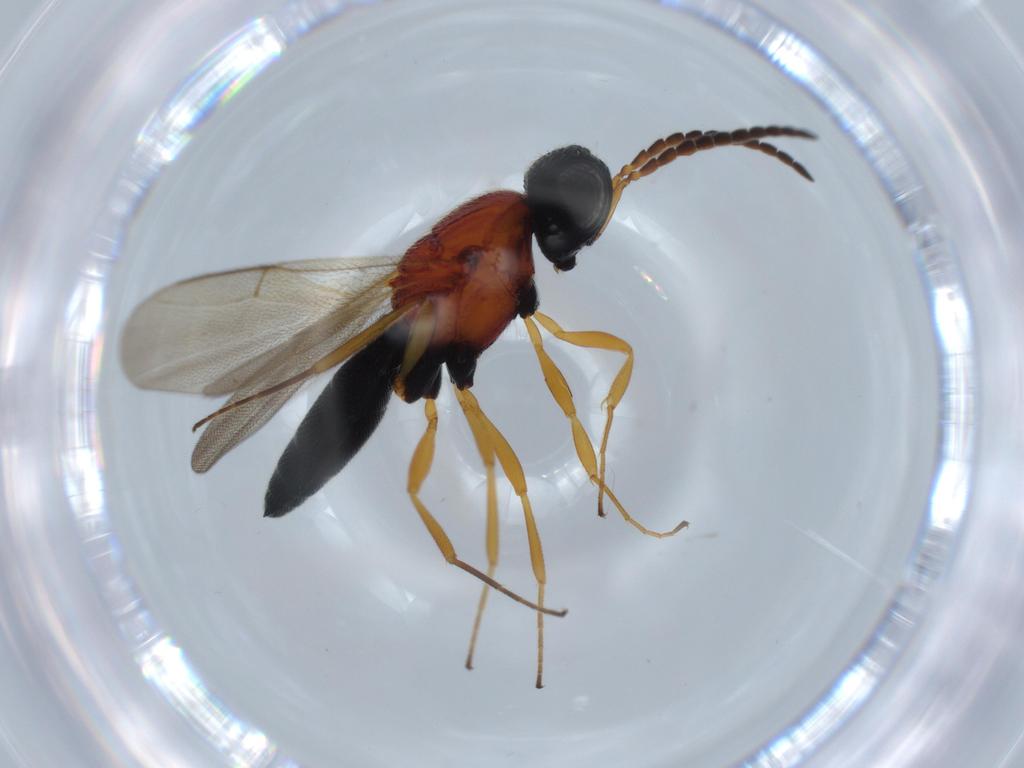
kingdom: Animalia
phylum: Arthropoda
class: Insecta
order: Hymenoptera
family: Scelionidae
